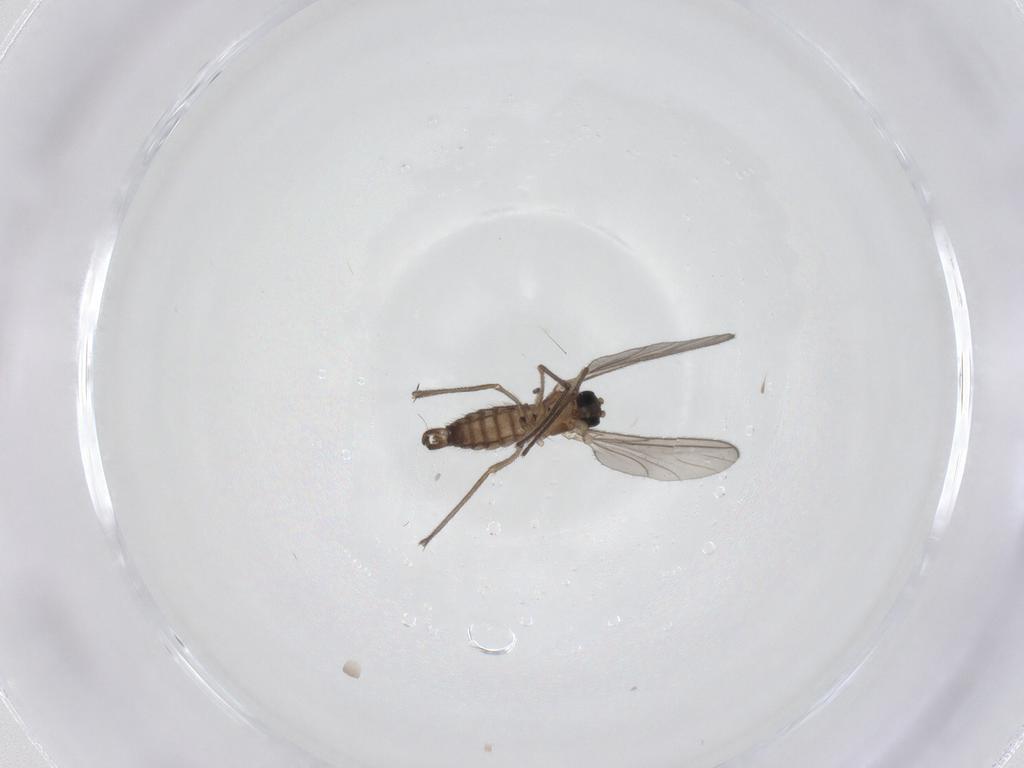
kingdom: Animalia
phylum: Arthropoda
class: Insecta
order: Diptera
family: Sciaridae
